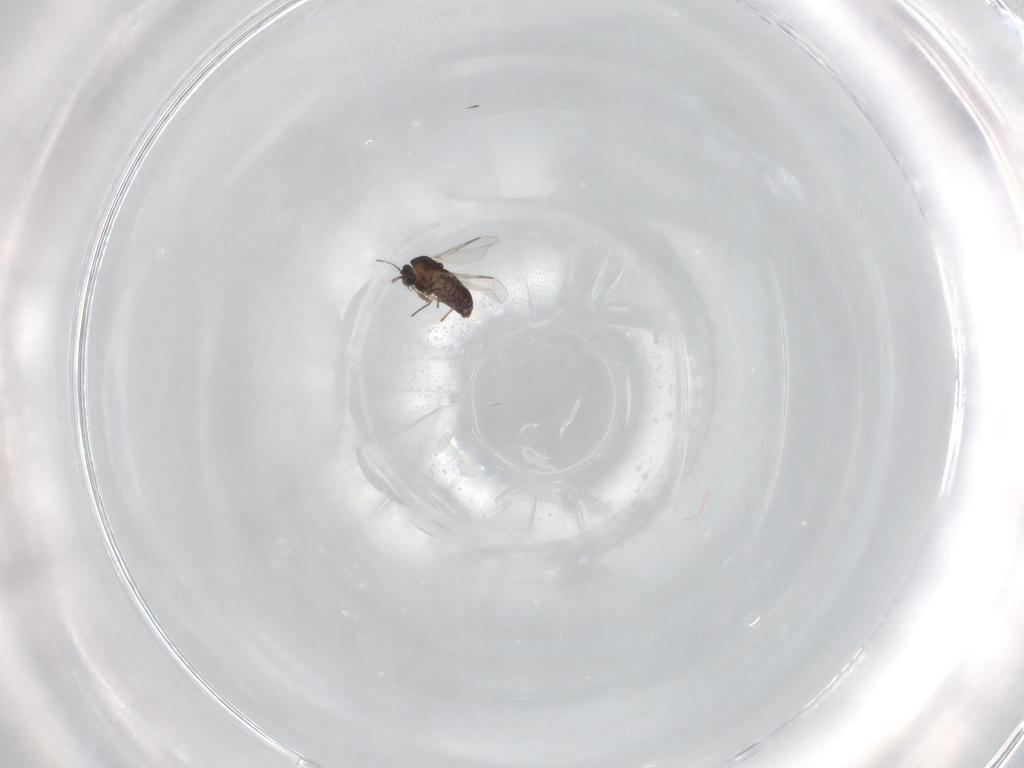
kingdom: Animalia
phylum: Arthropoda
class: Insecta
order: Diptera
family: Chironomidae
